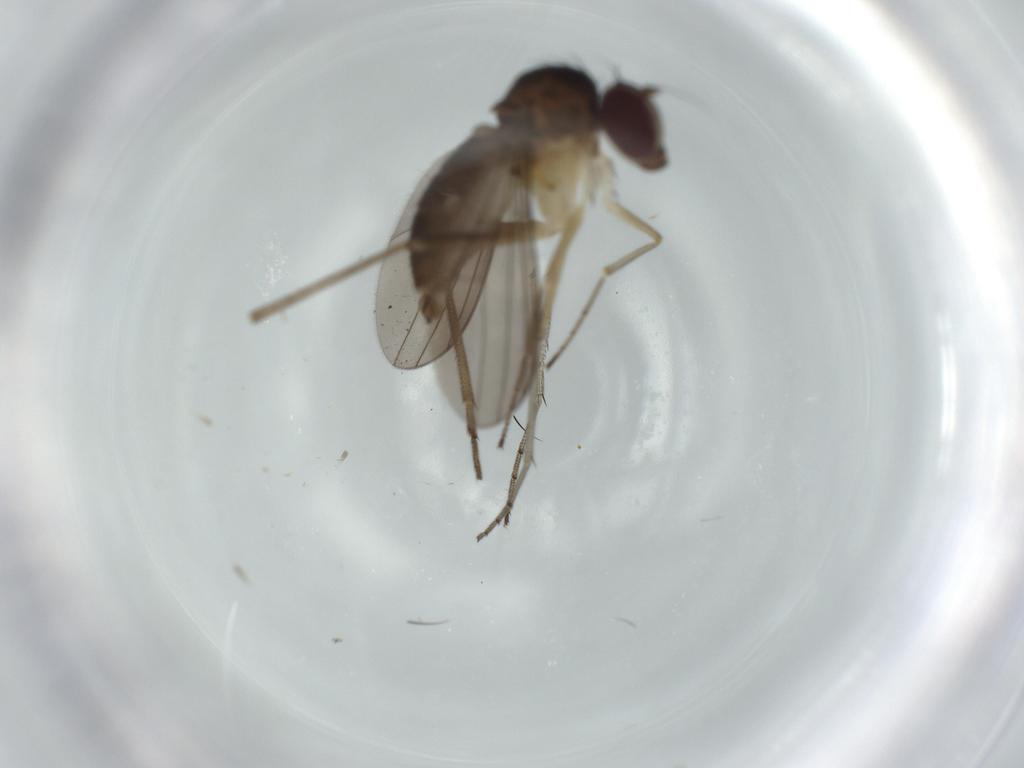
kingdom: Animalia
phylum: Arthropoda
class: Insecta
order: Diptera
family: Dolichopodidae
